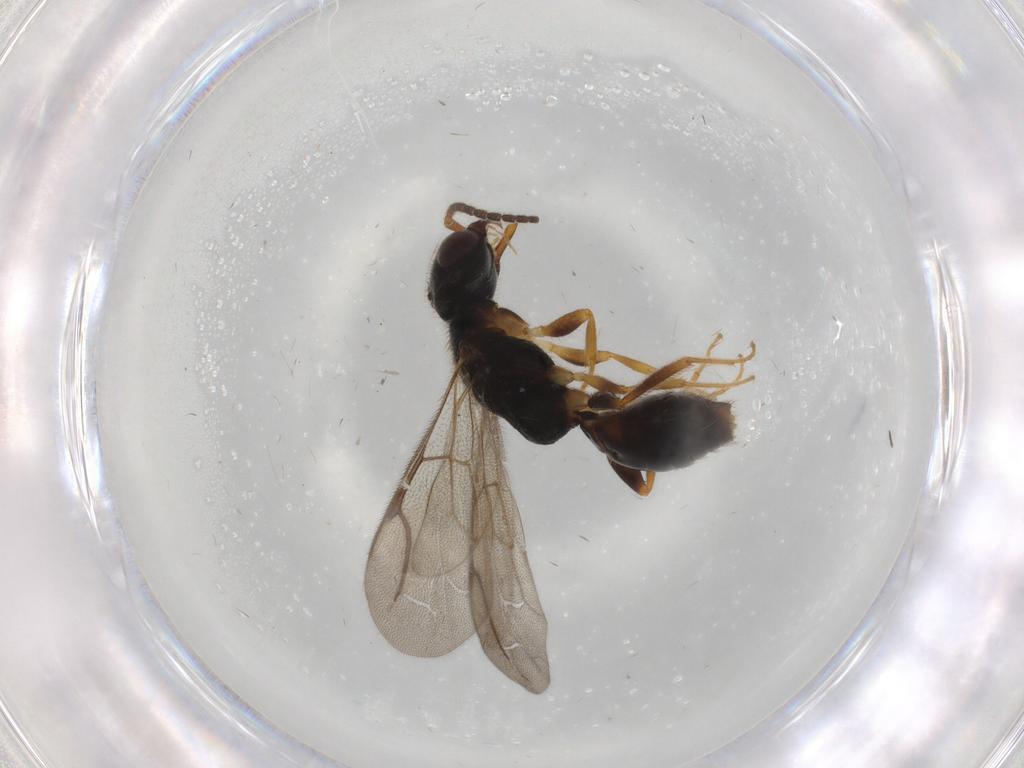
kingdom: Animalia
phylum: Arthropoda
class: Insecta
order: Hymenoptera
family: Bethylidae
